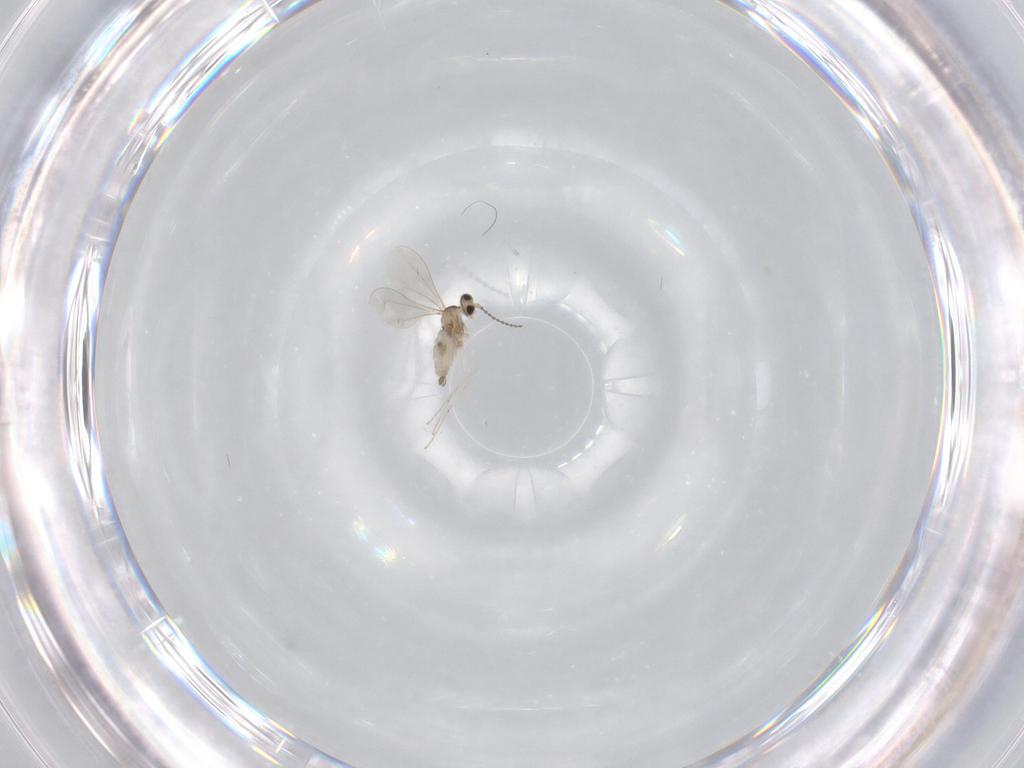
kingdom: Animalia
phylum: Arthropoda
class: Insecta
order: Diptera
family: Cecidomyiidae
